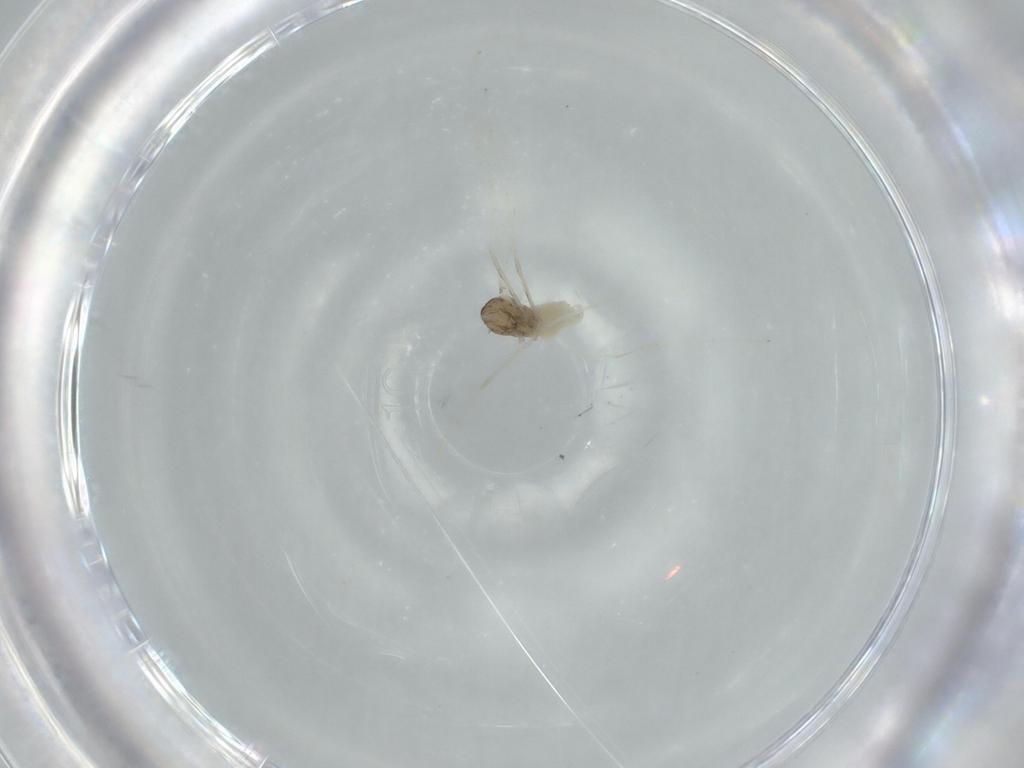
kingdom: Animalia
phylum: Arthropoda
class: Insecta
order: Diptera
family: Cecidomyiidae
